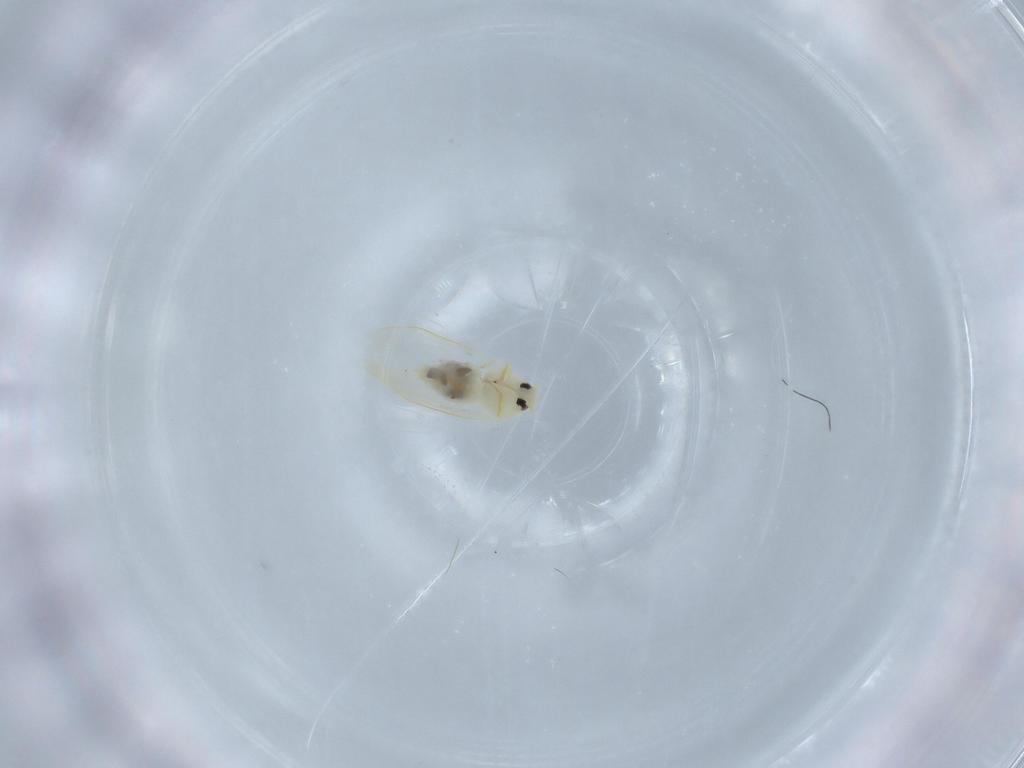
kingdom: Animalia
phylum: Arthropoda
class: Insecta
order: Hemiptera
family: Aleyrodidae
